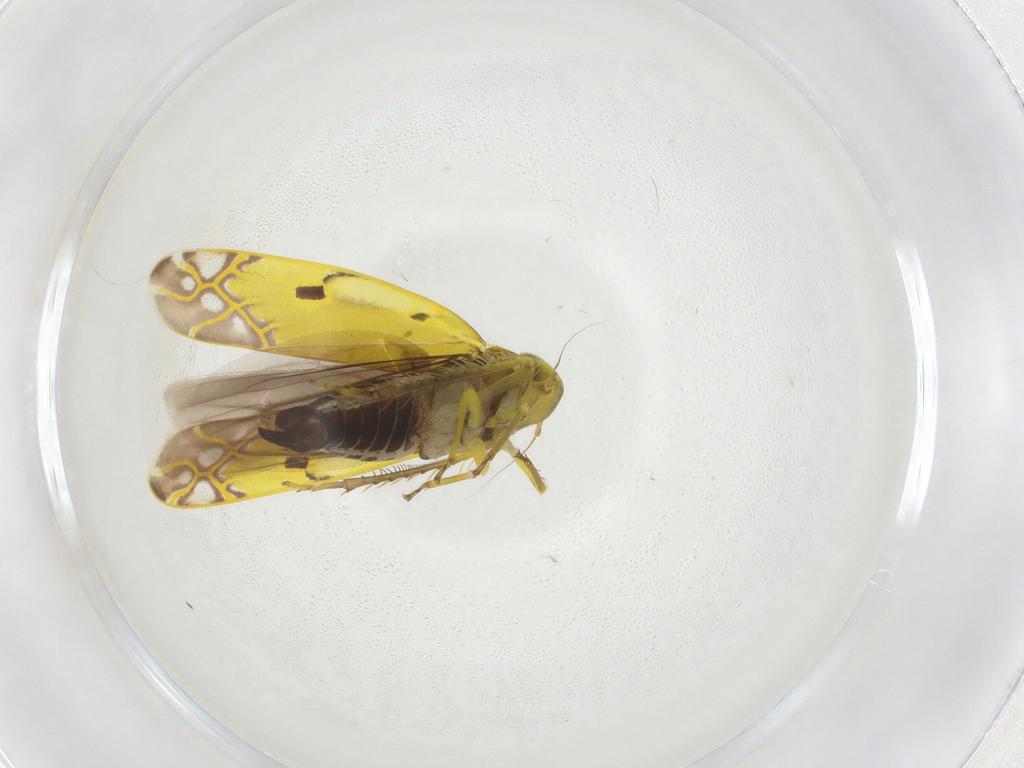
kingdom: Animalia
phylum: Arthropoda
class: Insecta
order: Hemiptera
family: Cicadellidae
